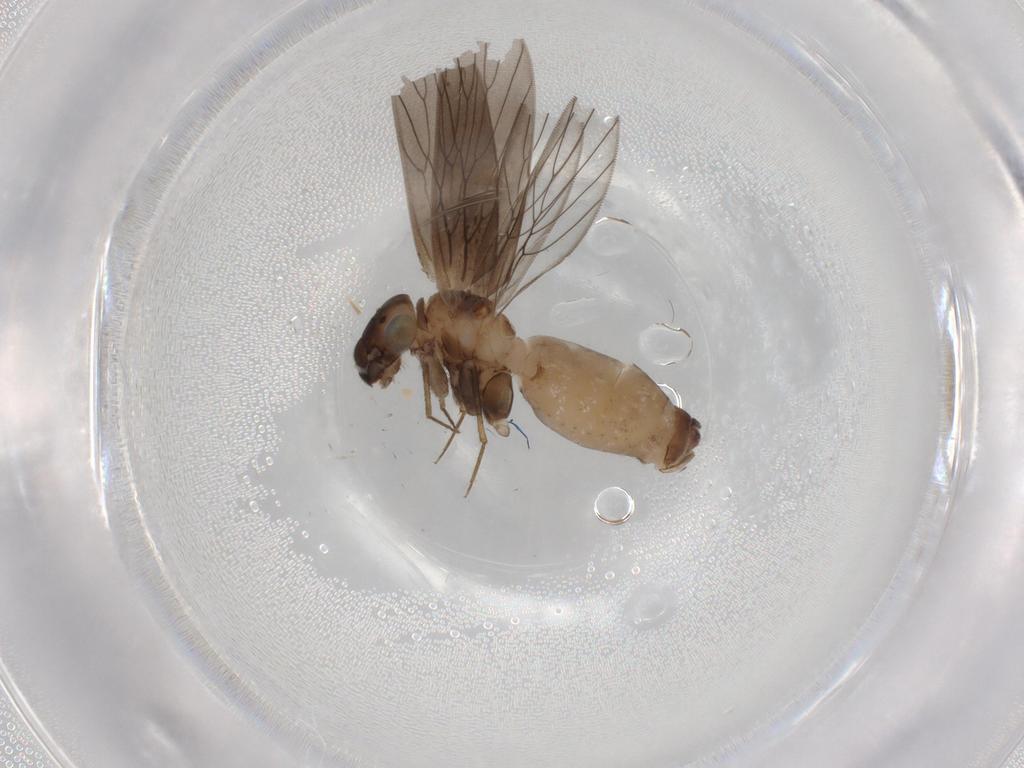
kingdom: Animalia
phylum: Arthropoda
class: Insecta
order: Psocodea
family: Lepidopsocidae
